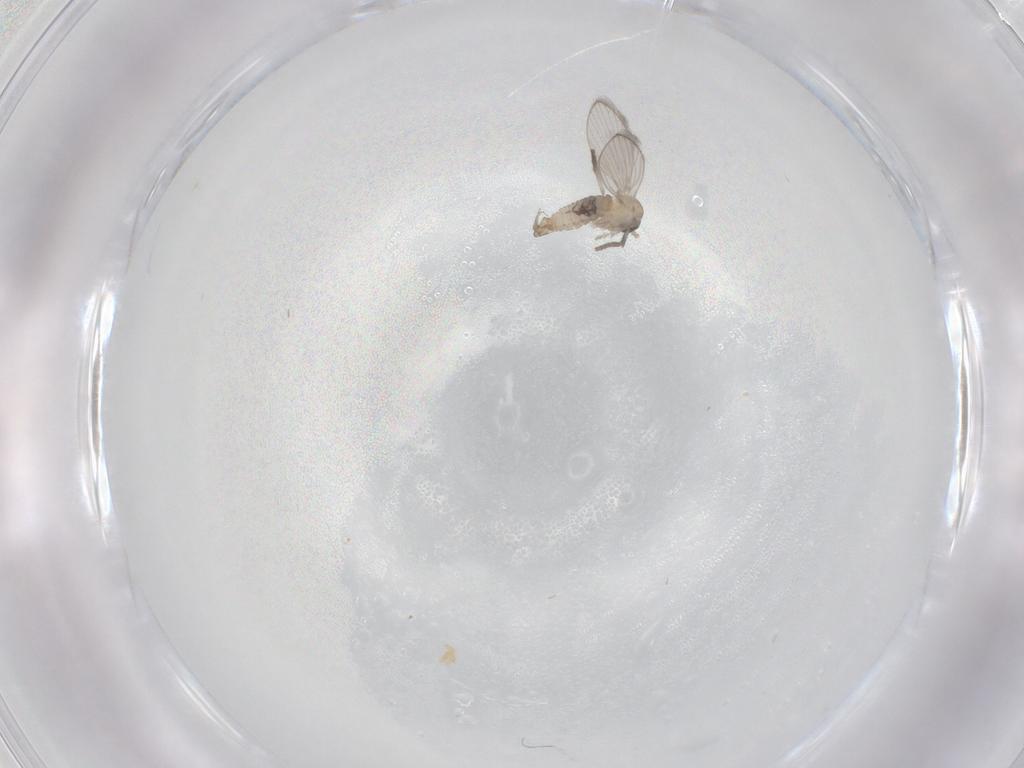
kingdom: Animalia
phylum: Arthropoda
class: Insecta
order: Diptera
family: Psychodidae
